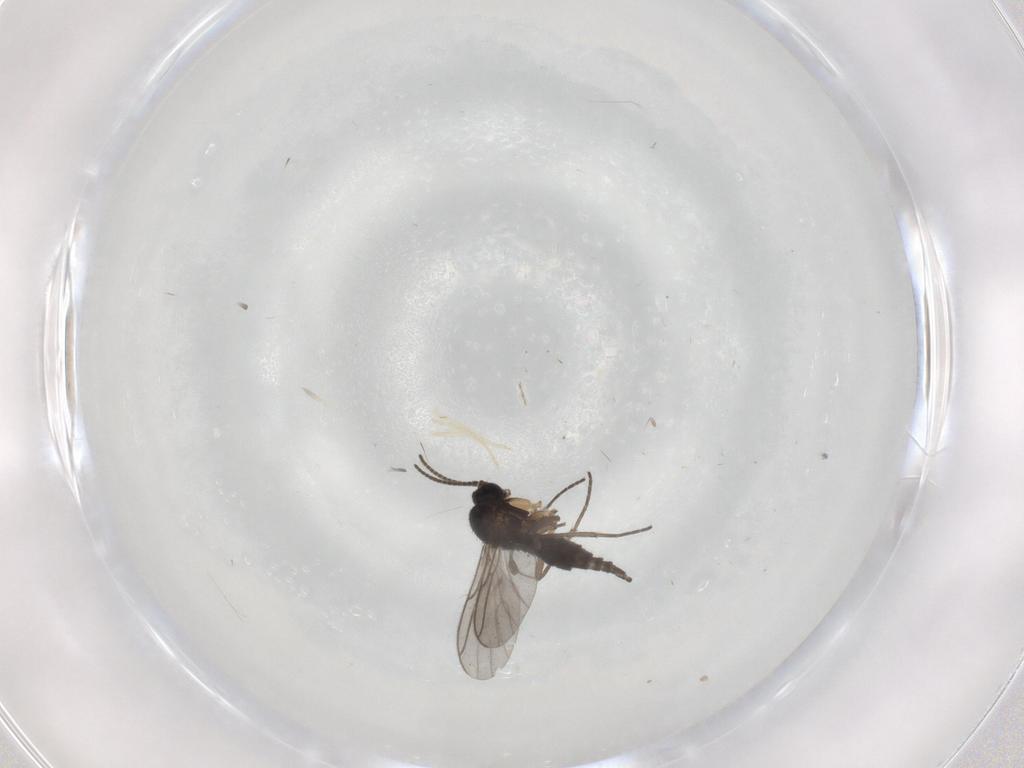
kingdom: Animalia
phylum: Arthropoda
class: Insecta
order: Diptera
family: Sciaridae
